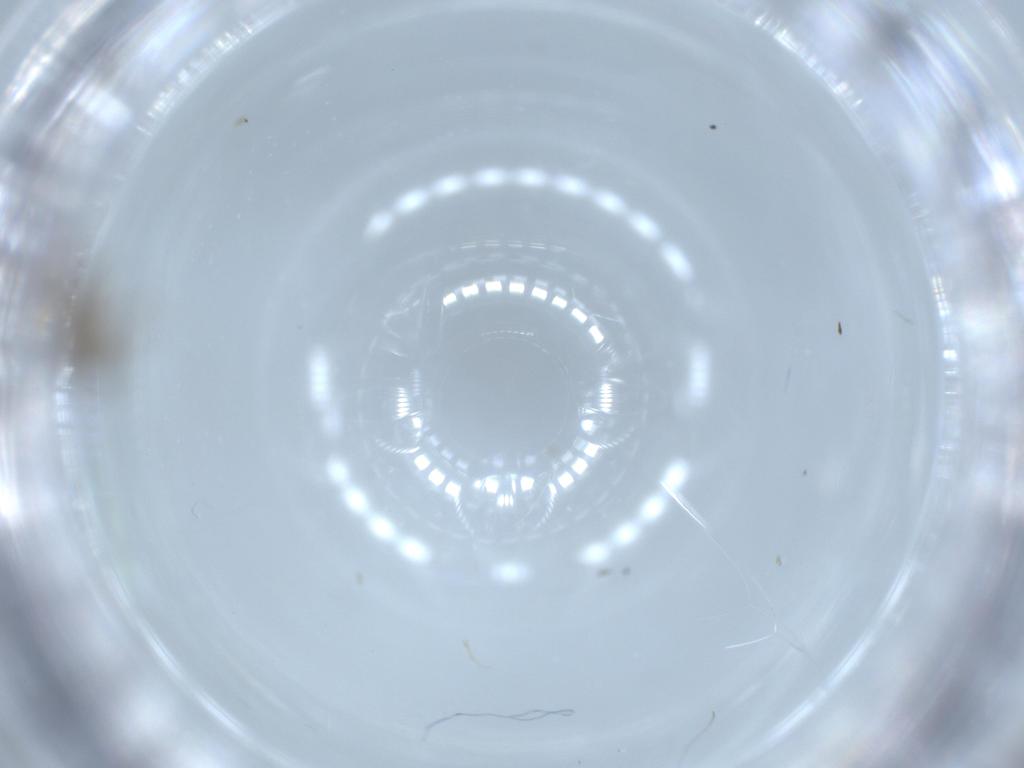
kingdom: Animalia
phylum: Arthropoda
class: Insecta
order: Diptera
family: Chironomidae
